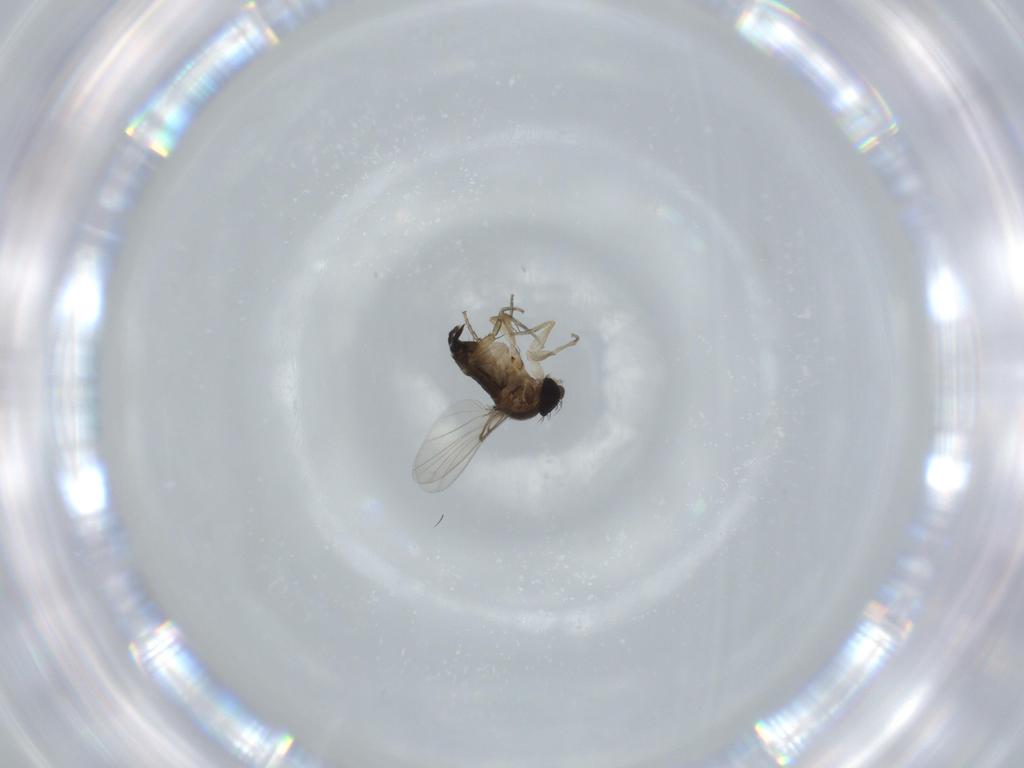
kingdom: Animalia
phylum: Arthropoda
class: Insecta
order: Diptera
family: Phoridae
